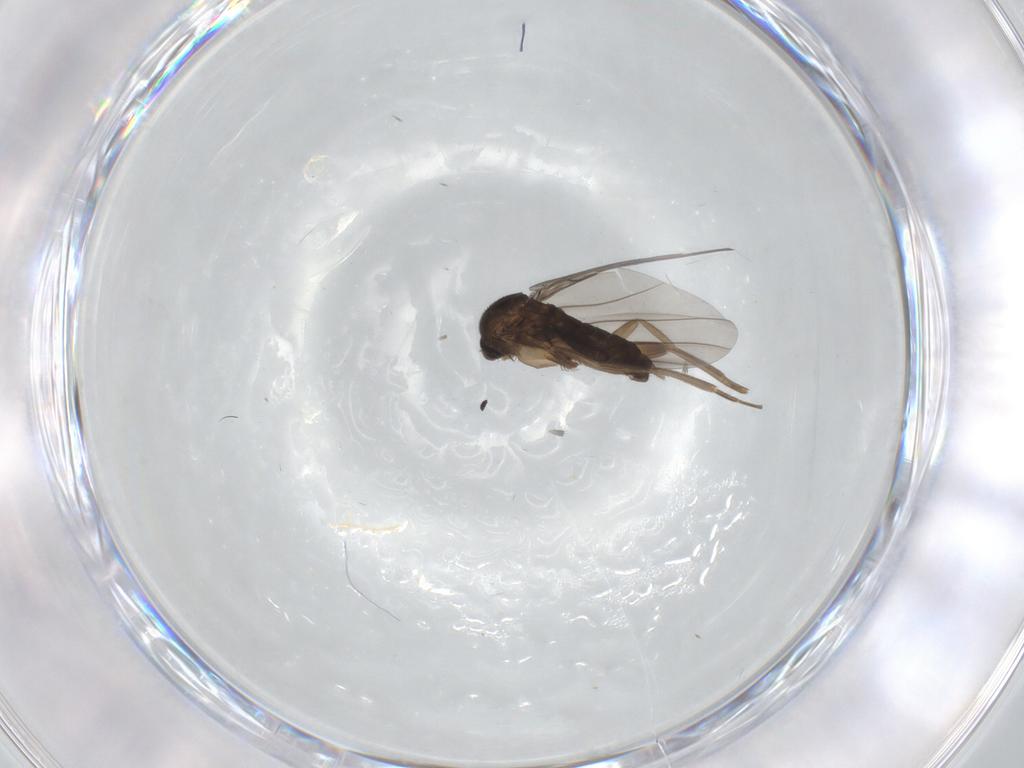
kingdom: Animalia
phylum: Arthropoda
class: Insecta
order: Diptera
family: Phoridae
